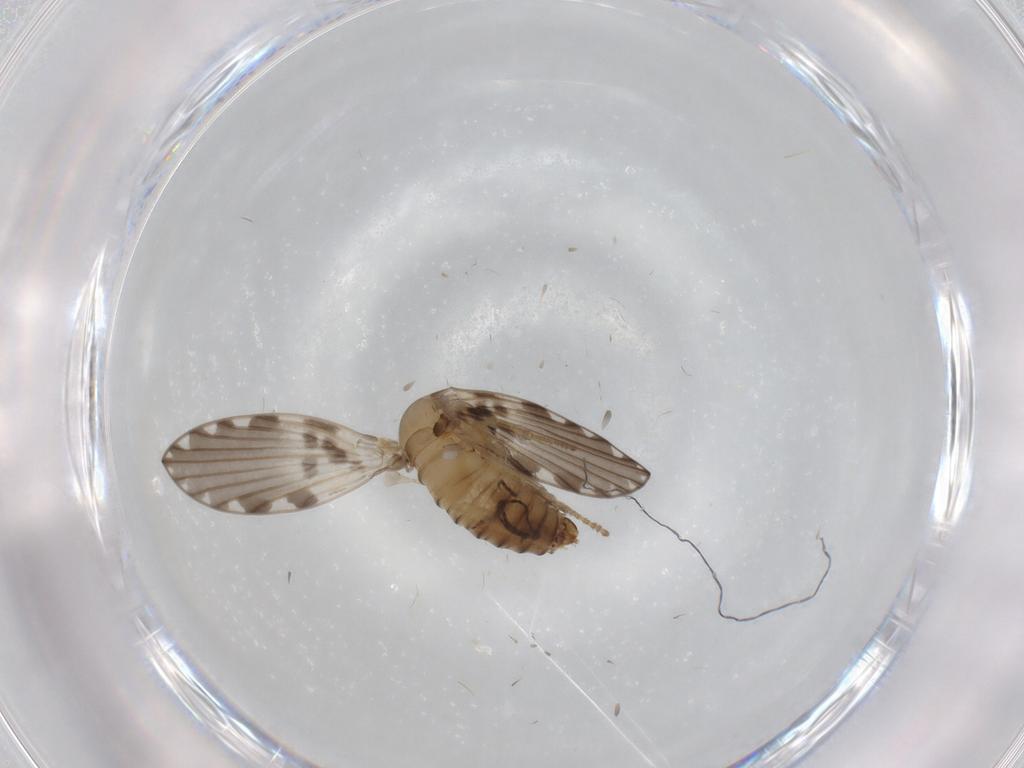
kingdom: Animalia
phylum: Arthropoda
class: Insecta
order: Diptera
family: Psychodidae
